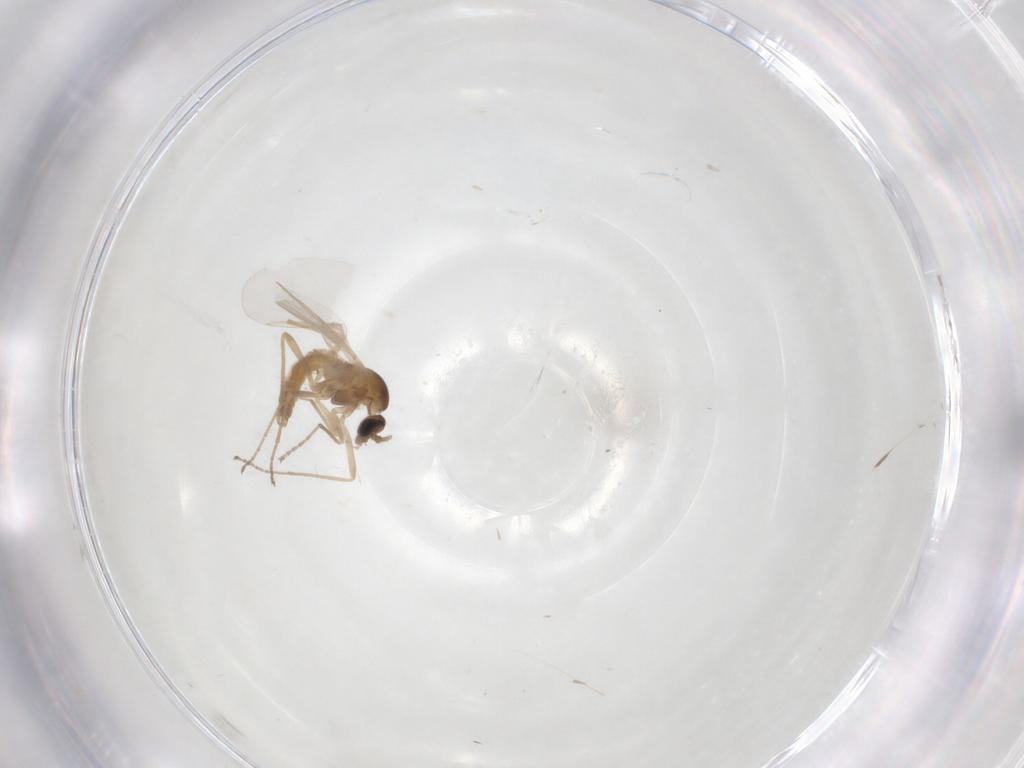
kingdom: Animalia
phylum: Arthropoda
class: Insecta
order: Diptera
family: Cecidomyiidae
